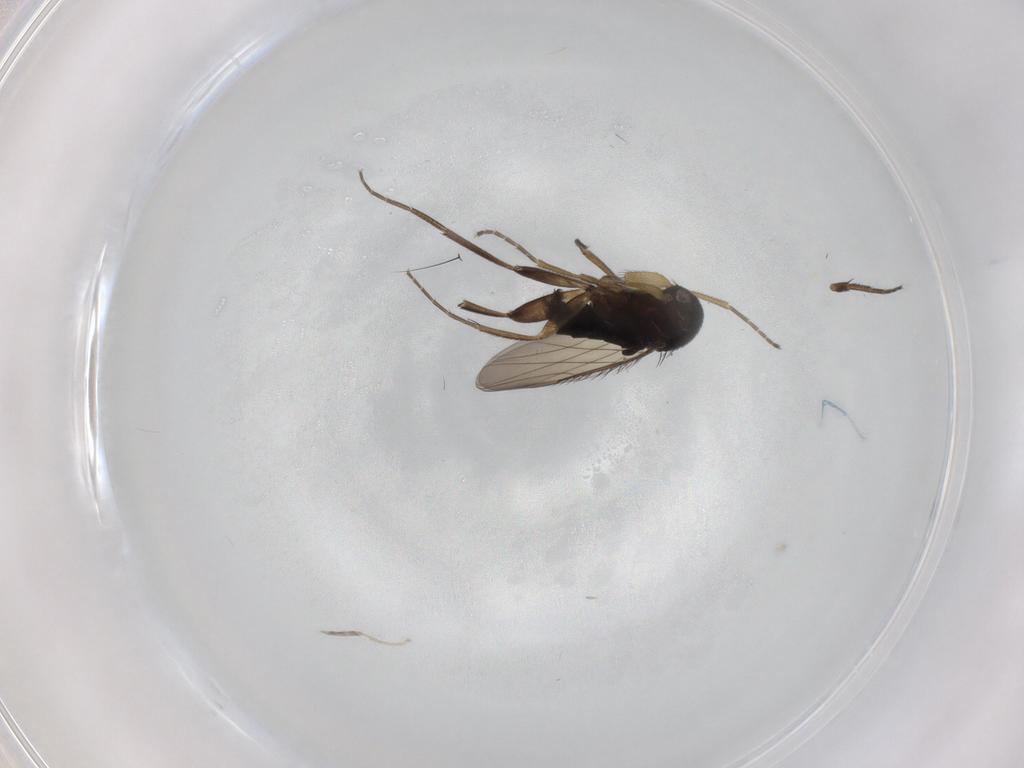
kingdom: Animalia
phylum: Arthropoda
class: Insecta
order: Diptera
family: Phoridae
